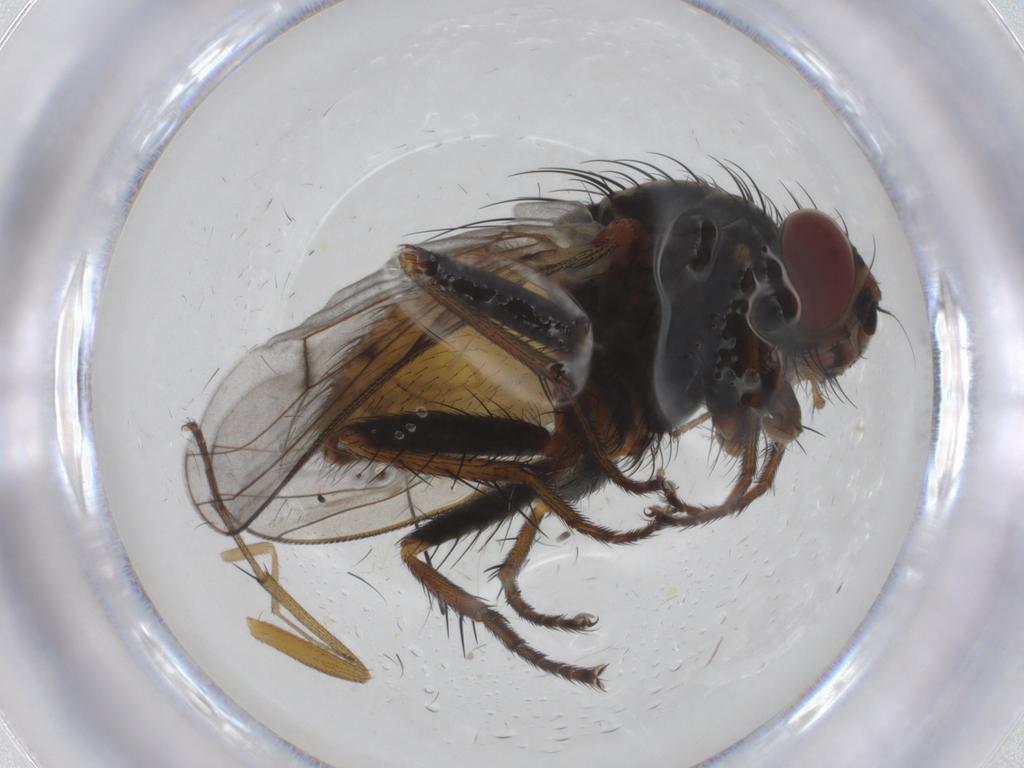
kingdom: Animalia
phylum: Arthropoda
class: Insecta
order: Diptera
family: Muscidae
